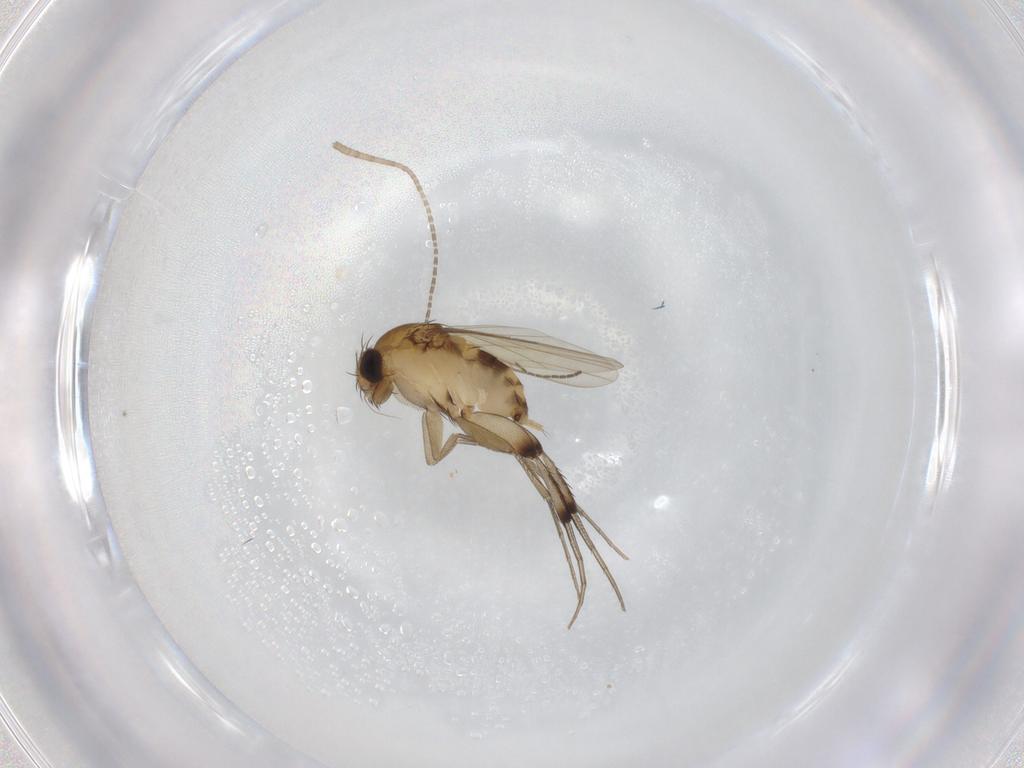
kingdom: Animalia
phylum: Arthropoda
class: Insecta
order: Diptera
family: Phoridae
